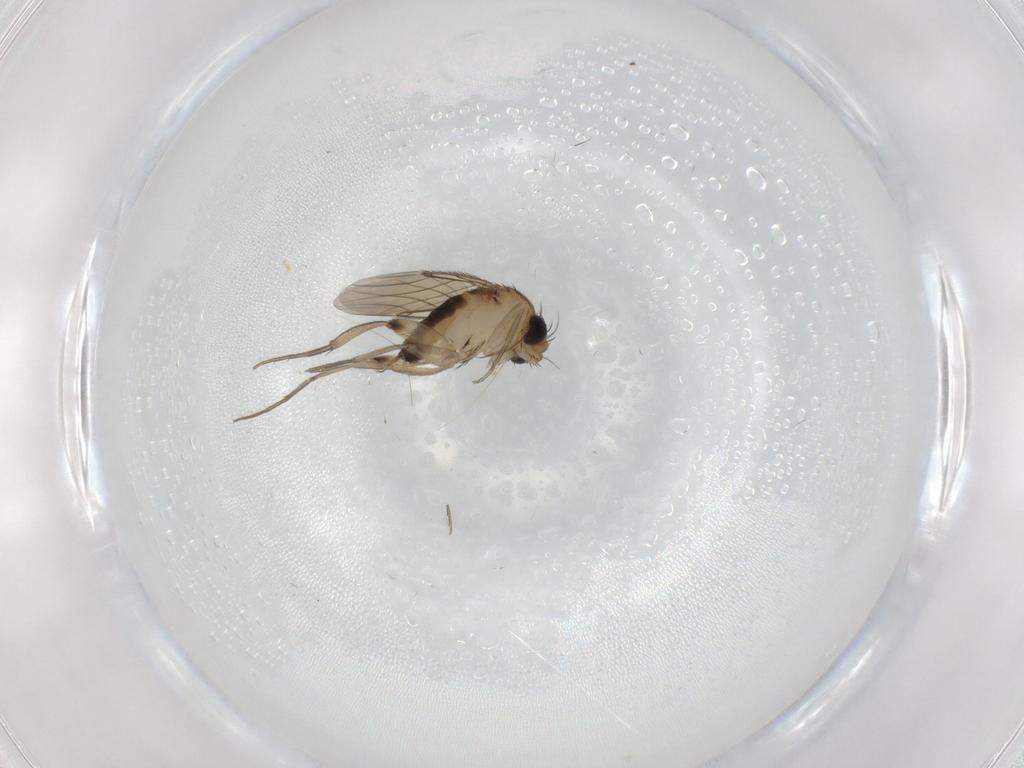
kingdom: Animalia
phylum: Arthropoda
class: Insecta
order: Diptera
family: Phoridae
